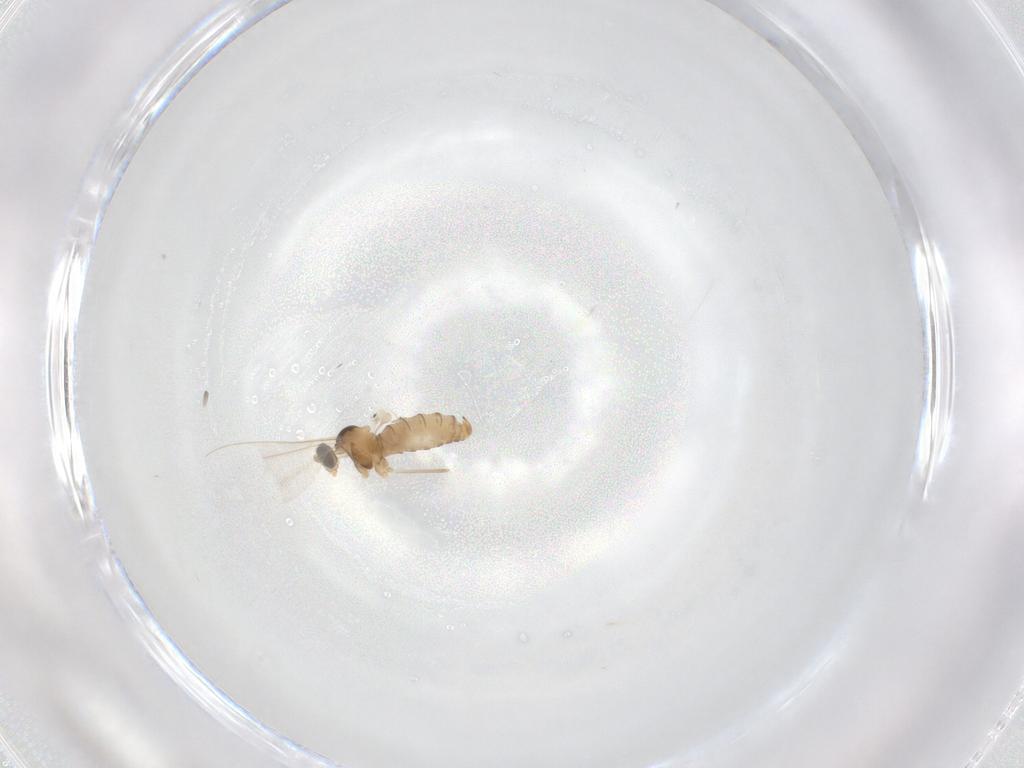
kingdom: Animalia
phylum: Arthropoda
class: Insecta
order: Diptera
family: Cecidomyiidae
